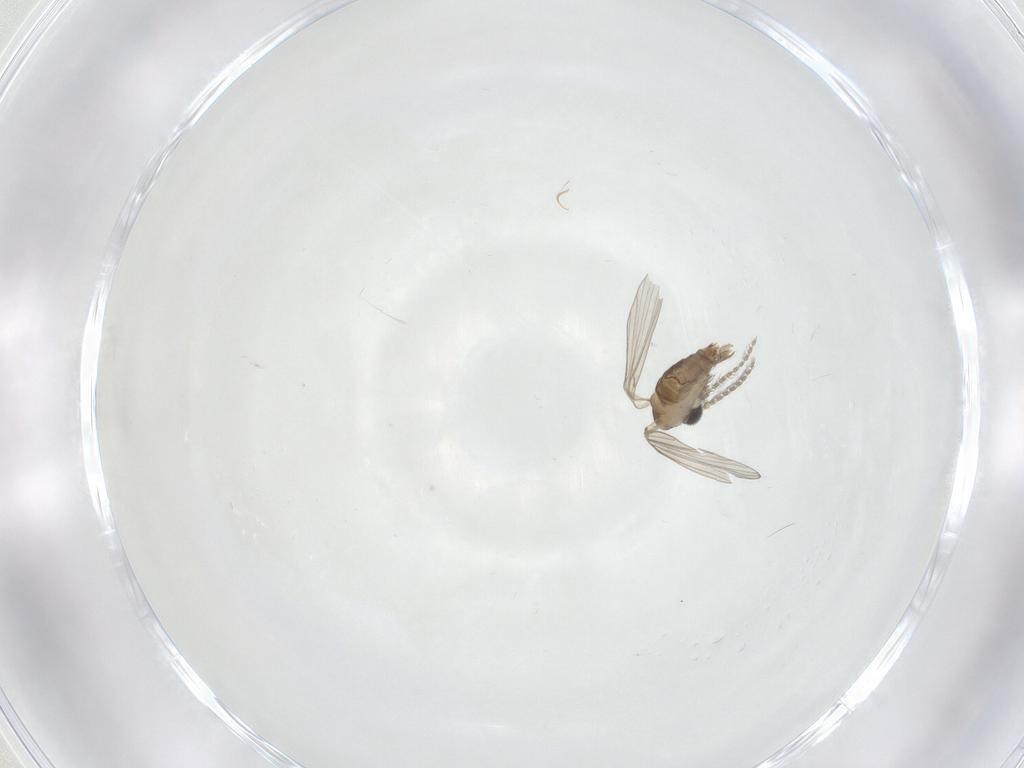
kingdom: Animalia
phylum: Arthropoda
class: Insecta
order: Diptera
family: Psychodidae
